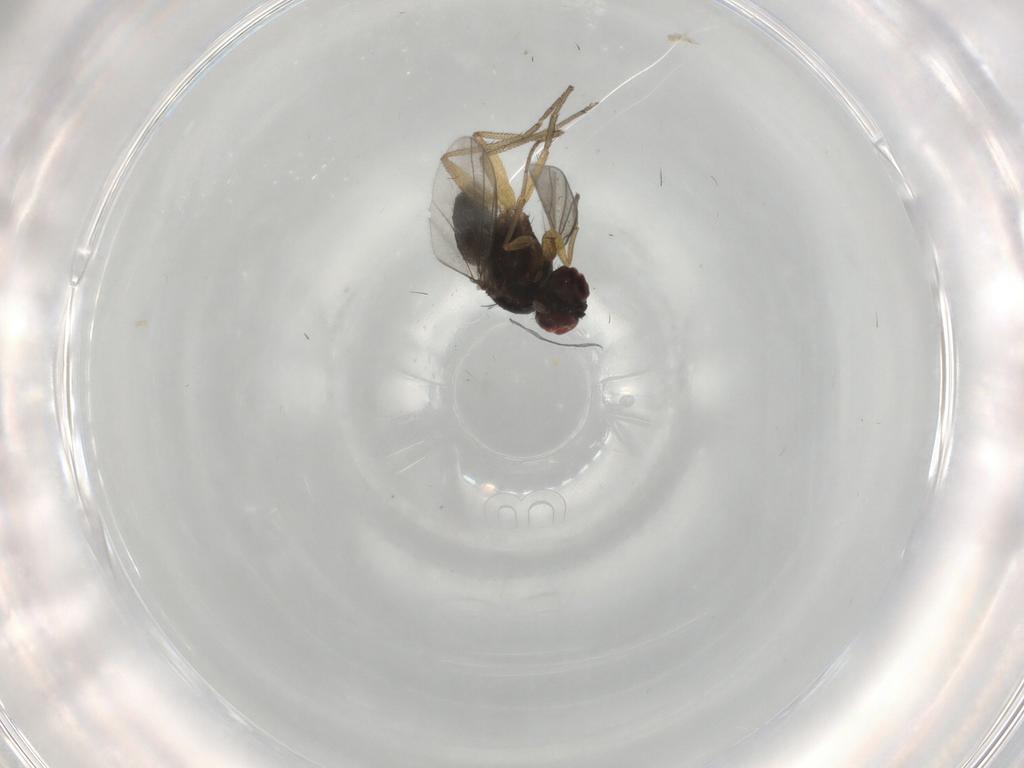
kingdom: Animalia
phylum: Arthropoda
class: Insecta
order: Diptera
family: Dolichopodidae
